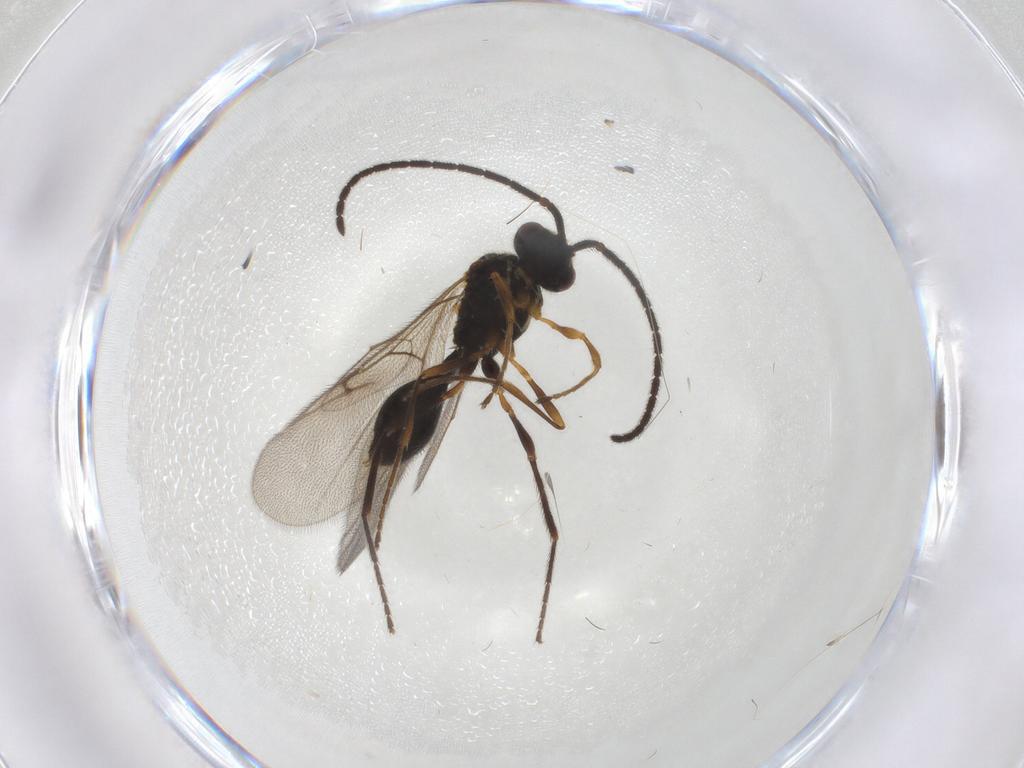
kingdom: Animalia
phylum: Arthropoda
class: Insecta
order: Hymenoptera
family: Diapriidae
